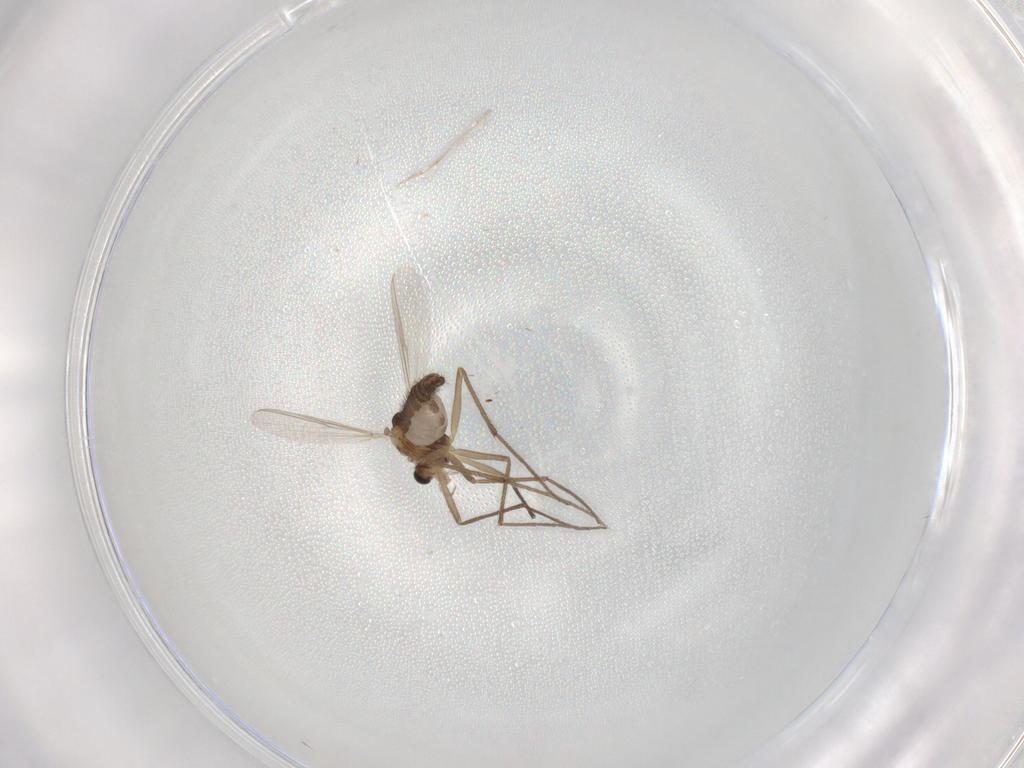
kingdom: Animalia
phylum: Arthropoda
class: Insecta
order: Diptera
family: Chironomidae
